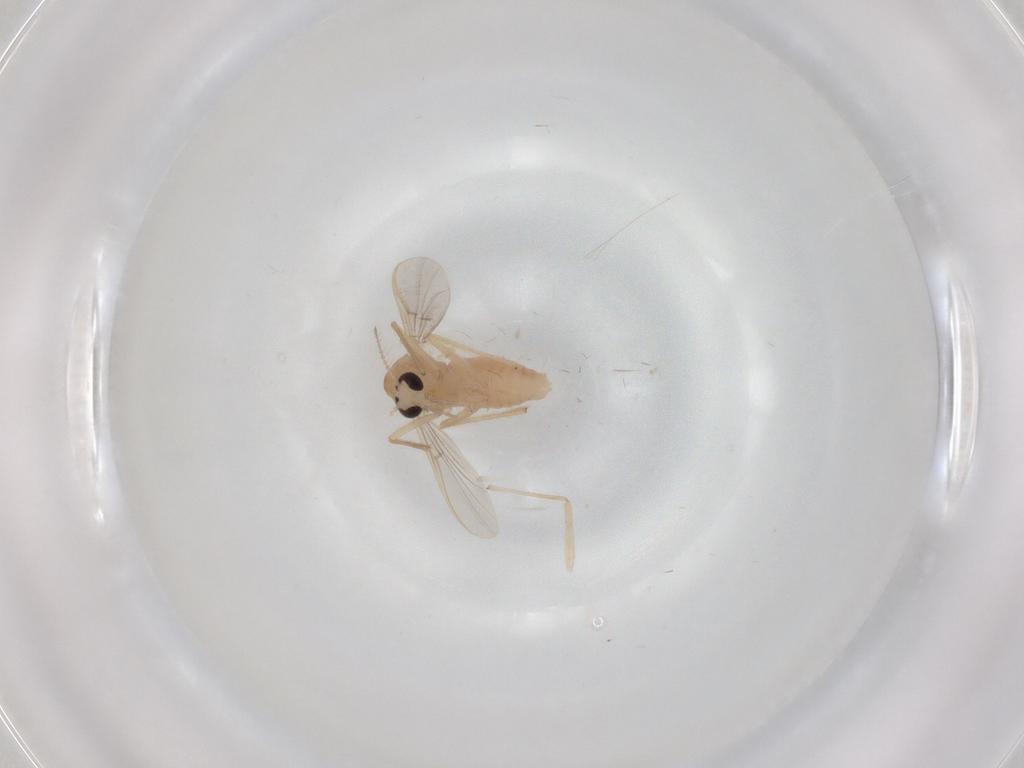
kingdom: Animalia
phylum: Arthropoda
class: Insecta
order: Diptera
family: Chironomidae
